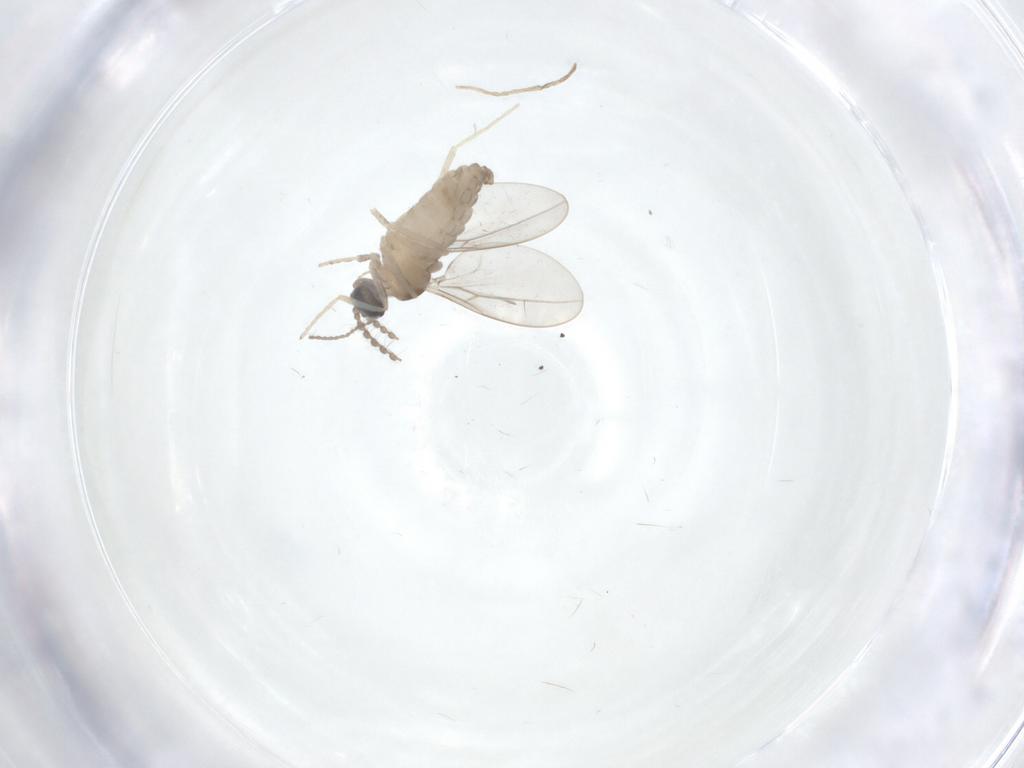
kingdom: Animalia
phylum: Arthropoda
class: Insecta
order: Diptera
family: Cecidomyiidae
